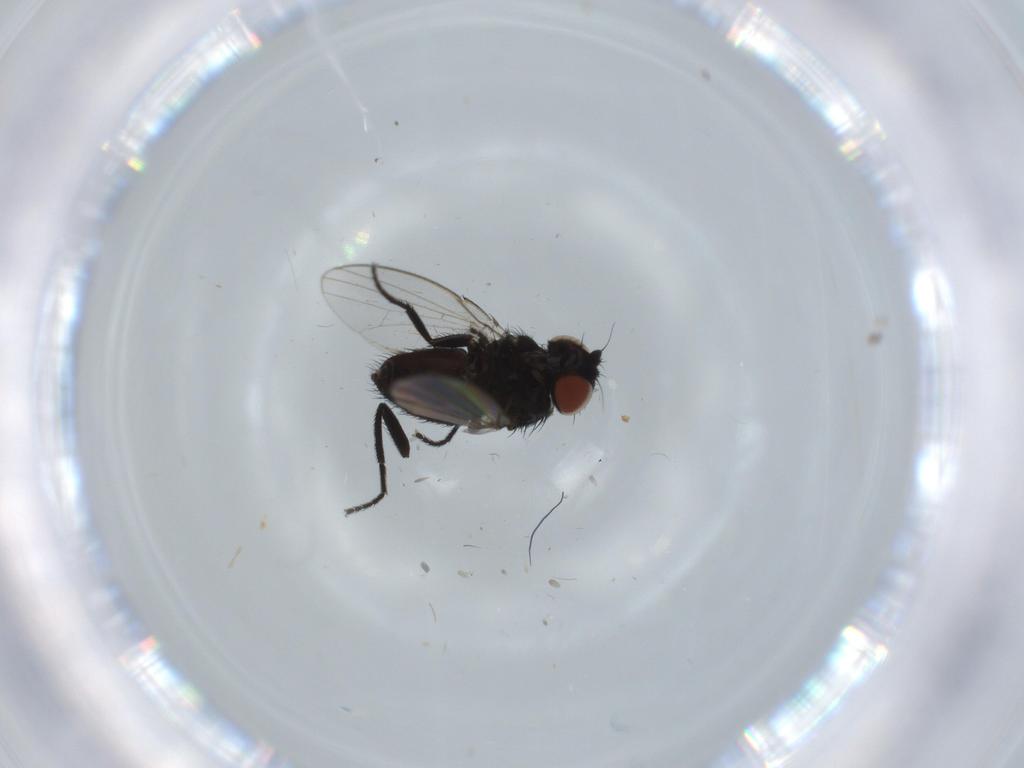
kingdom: Animalia
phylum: Arthropoda
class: Insecta
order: Diptera
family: Milichiidae
